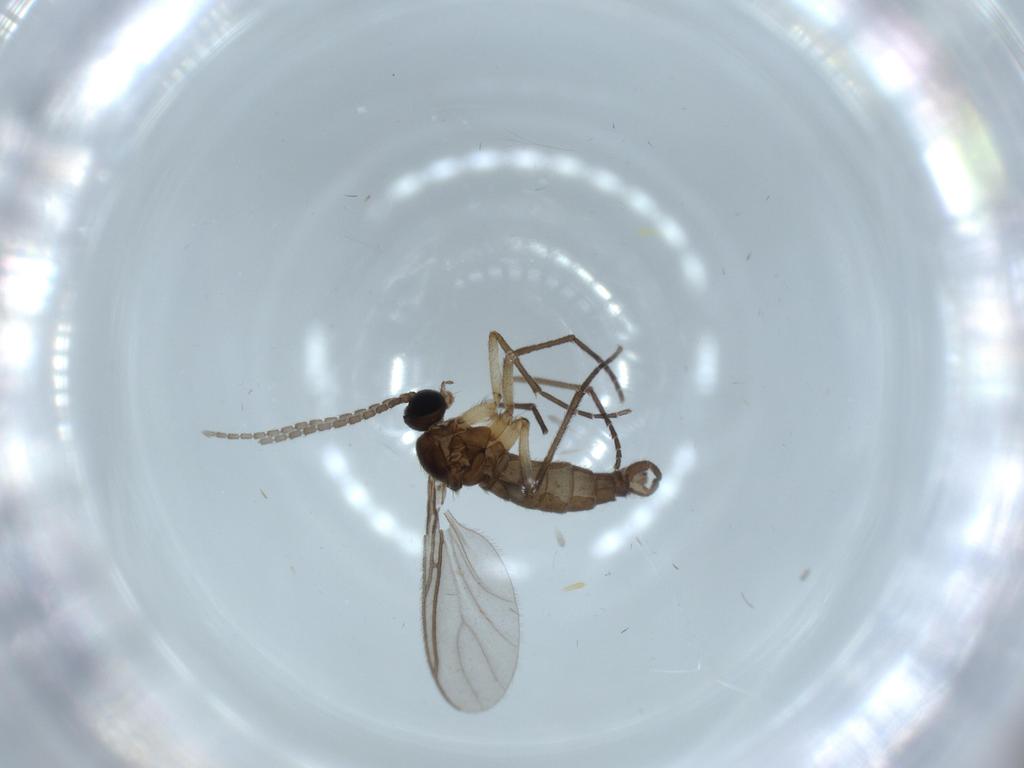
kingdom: Animalia
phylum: Arthropoda
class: Insecta
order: Diptera
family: Sciaridae
